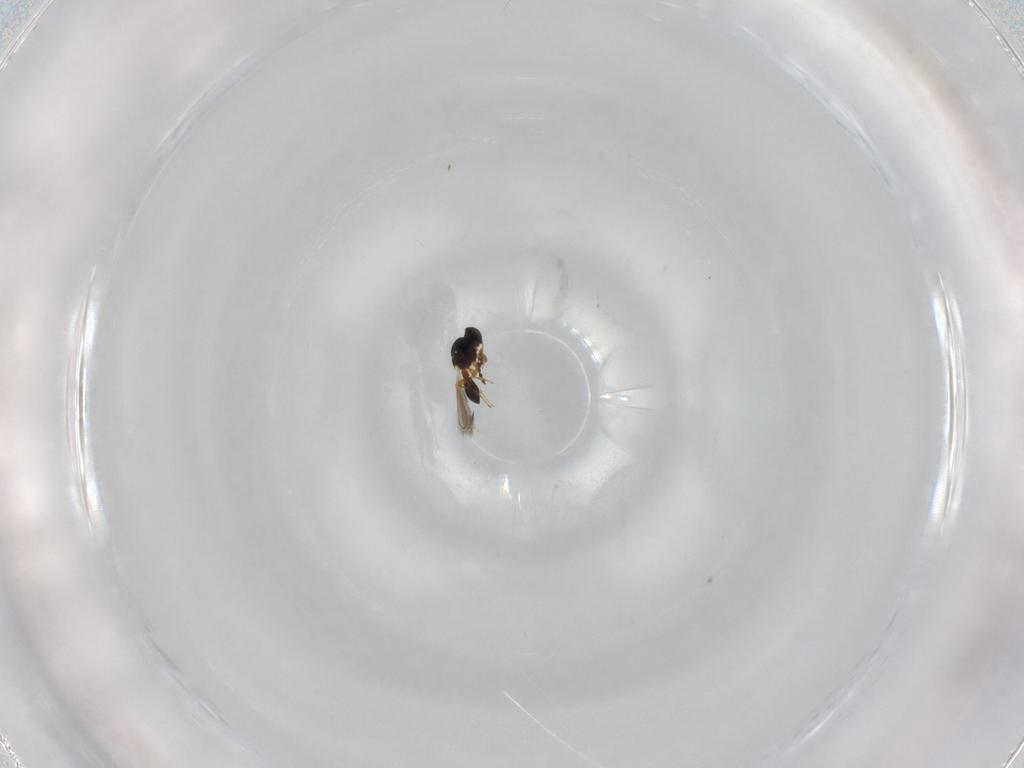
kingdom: Animalia
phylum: Arthropoda
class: Insecta
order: Hymenoptera
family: Platygastridae
